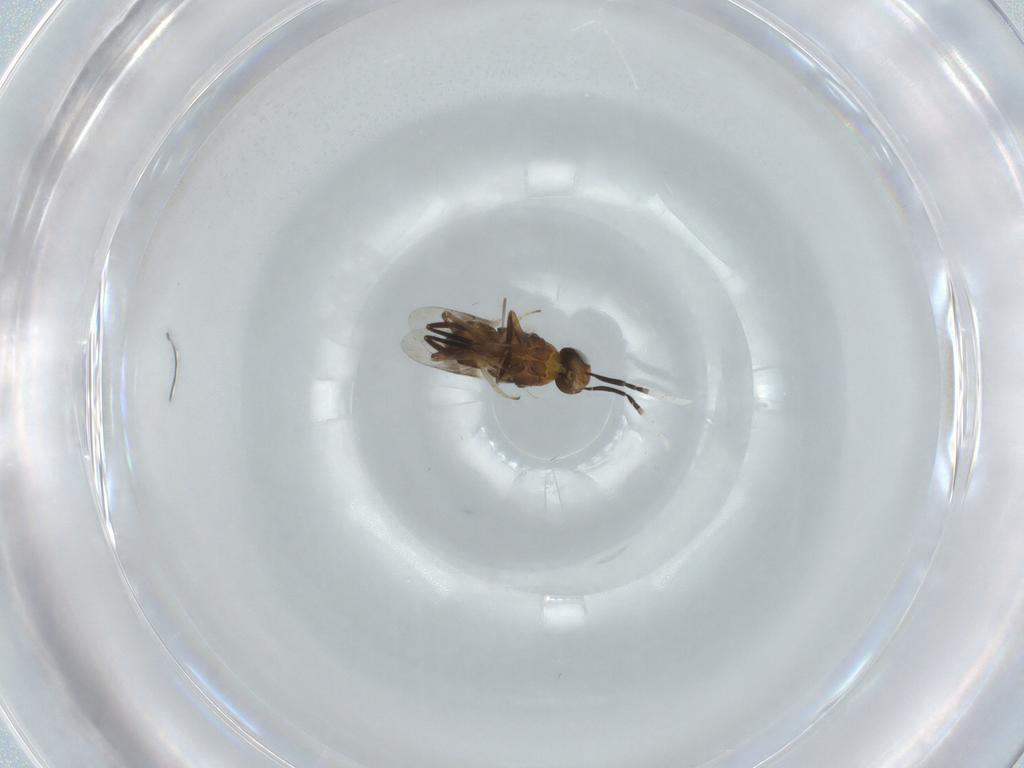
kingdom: Animalia
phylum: Arthropoda
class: Insecta
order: Hymenoptera
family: Encyrtidae
